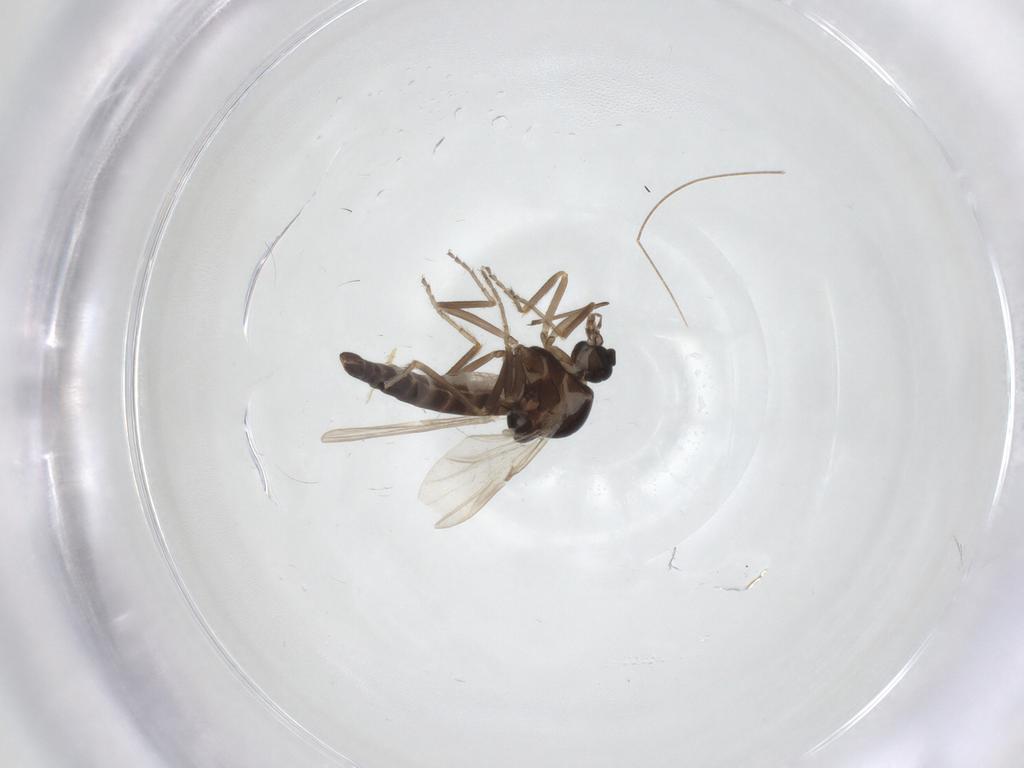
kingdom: Animalia
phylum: Arthropoda
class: Insecta
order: Diptera
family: Ceratopogonidae
